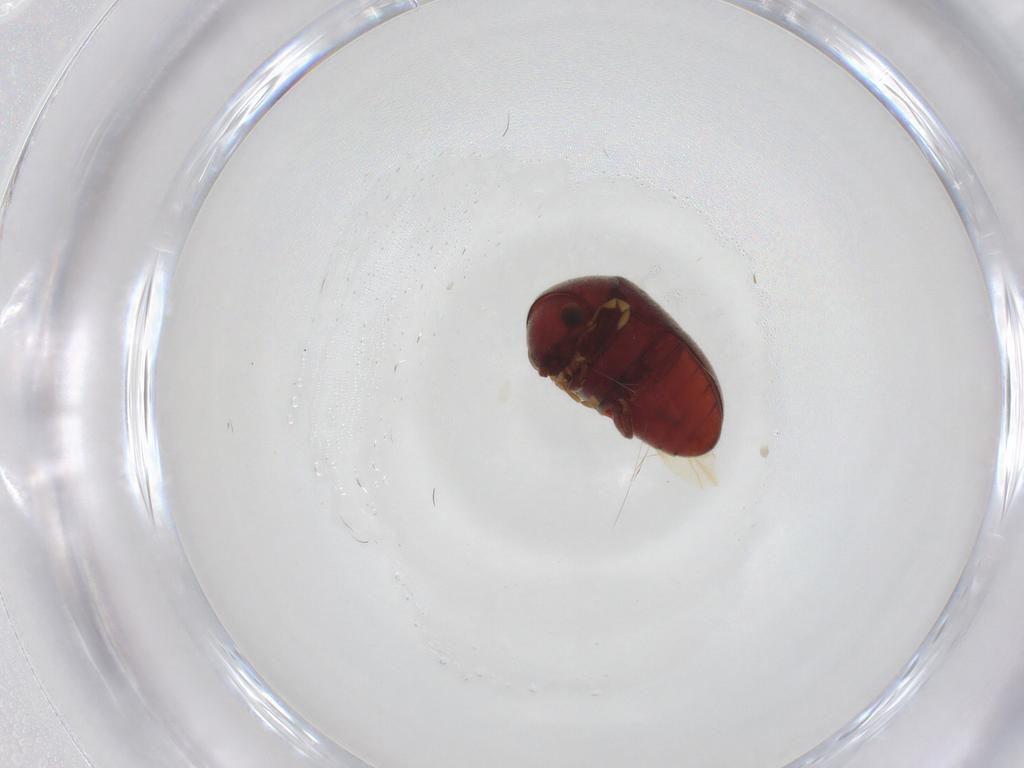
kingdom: Animalia
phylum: Arthropoda
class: Insecta
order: Coleoptera
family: Ptinidae
